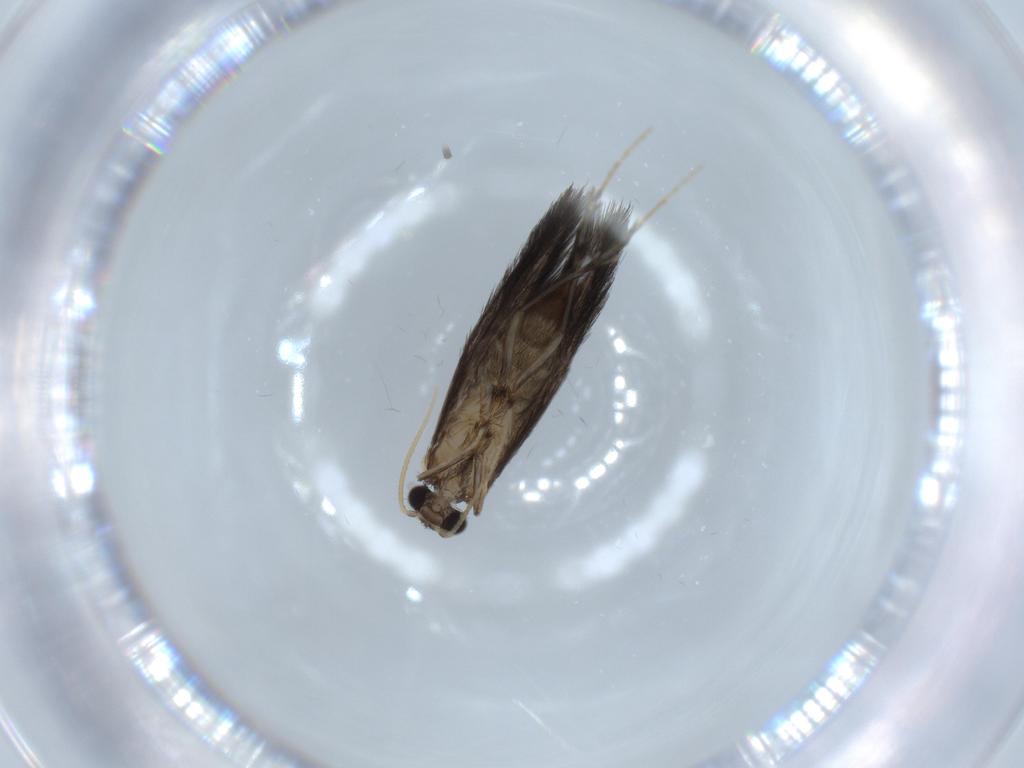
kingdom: Animalia
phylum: Arthropoda
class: Insecta
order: Trichoptera
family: Hydroptilidae
